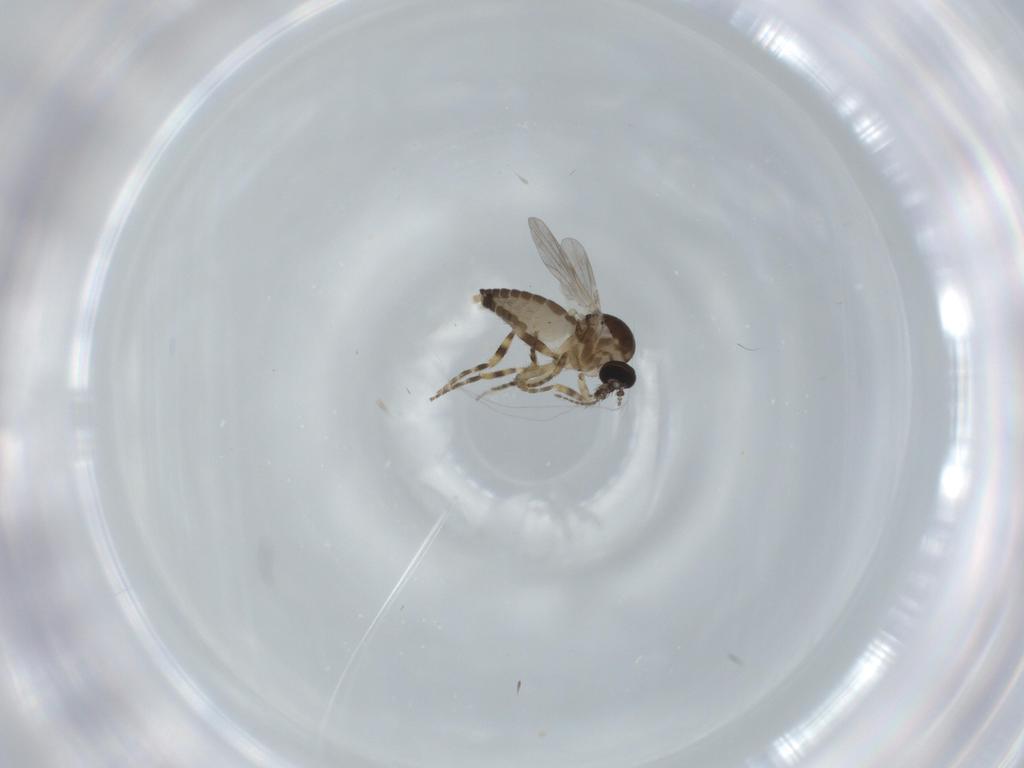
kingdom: Animalia
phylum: Arthropoda
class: Insecta
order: Diptera
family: Ceratopogonidae
